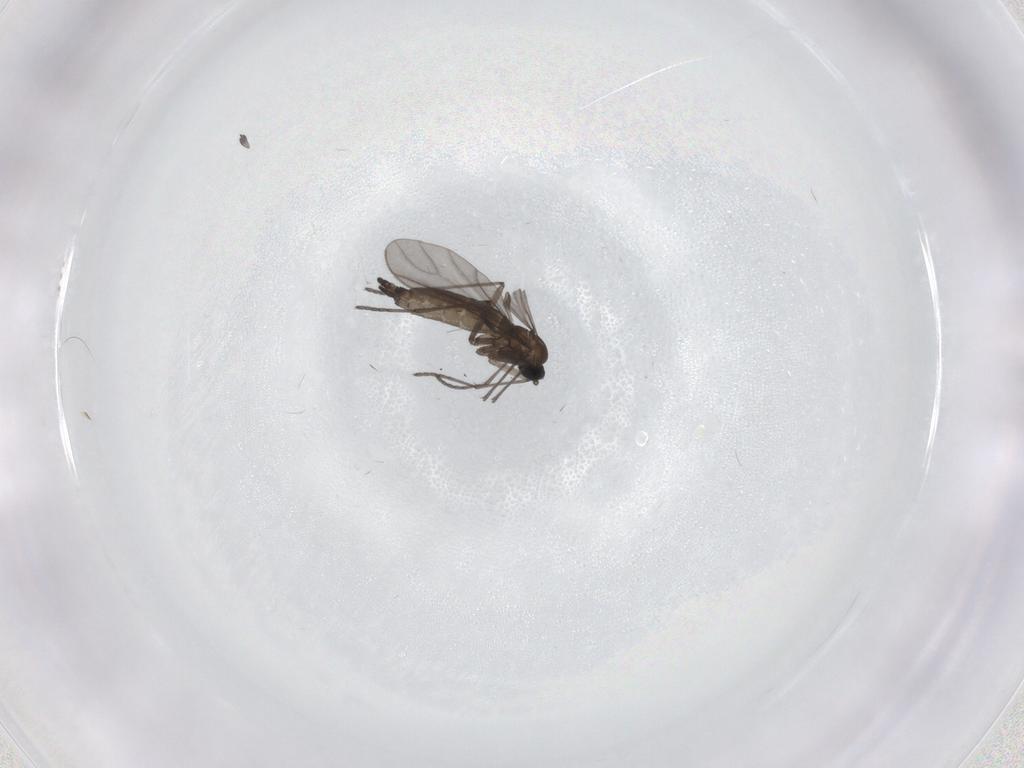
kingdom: Animalia
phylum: Arthropoda
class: Insecta
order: Diptera
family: Sciaridae
